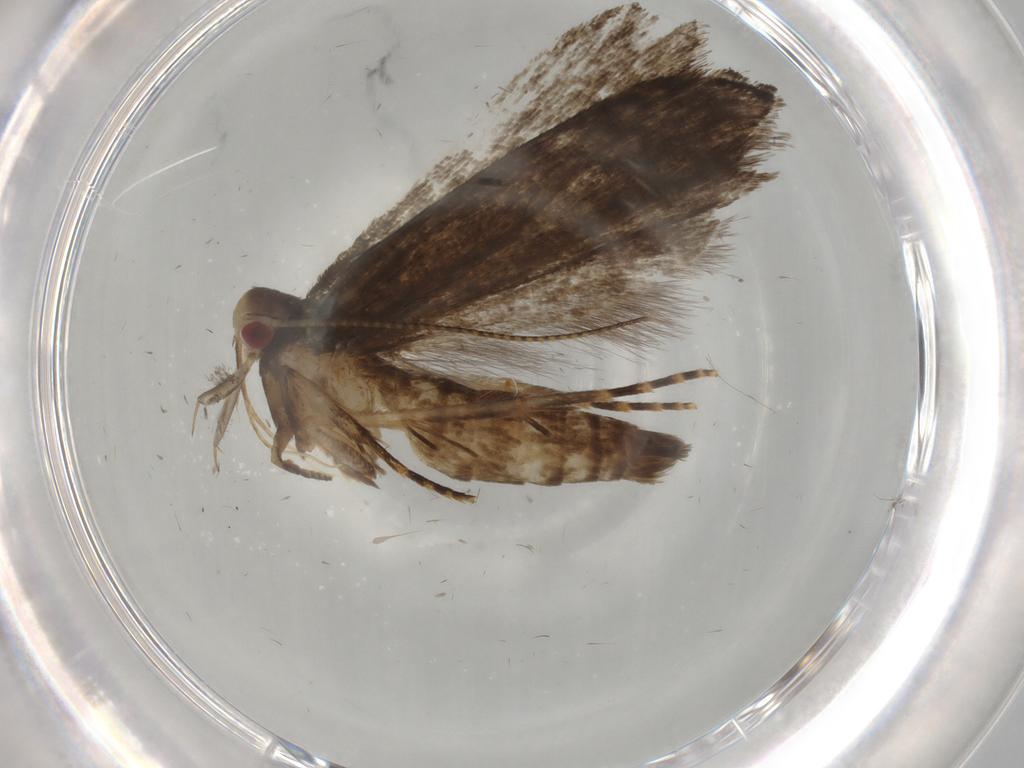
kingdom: Animalia
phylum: Arthropoda
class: Insecta
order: Lepidoptera
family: Gelechiidae
